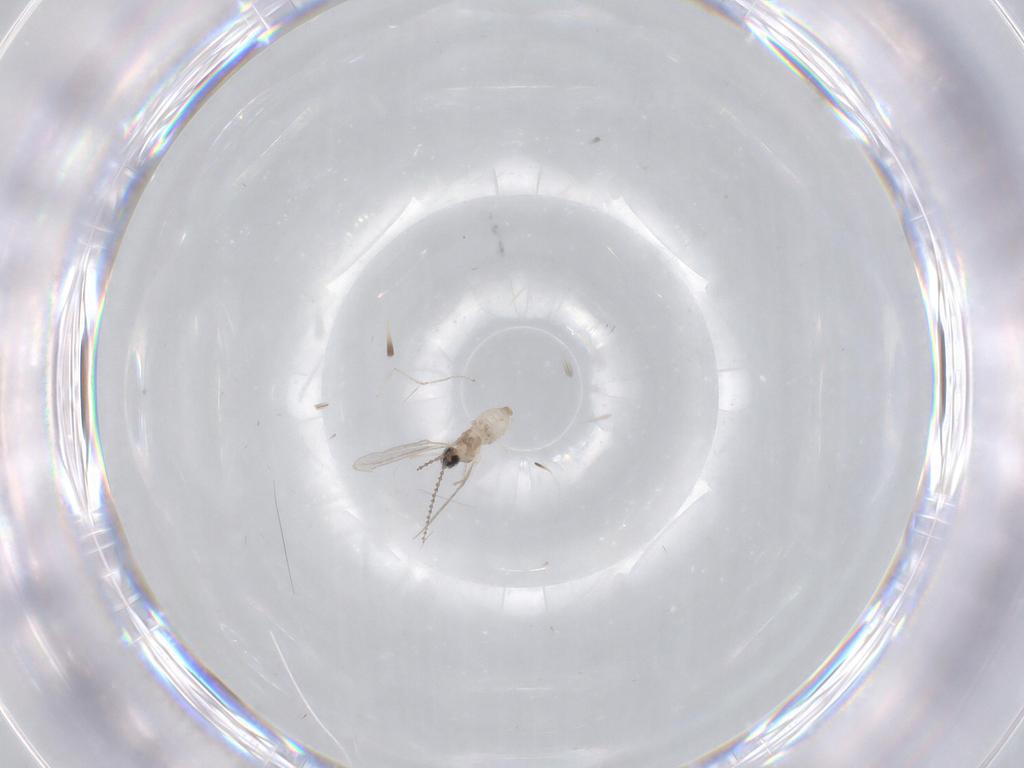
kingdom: Animalia
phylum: Arthropoda
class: Insecta
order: Diptera
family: Cecidomyiidae
